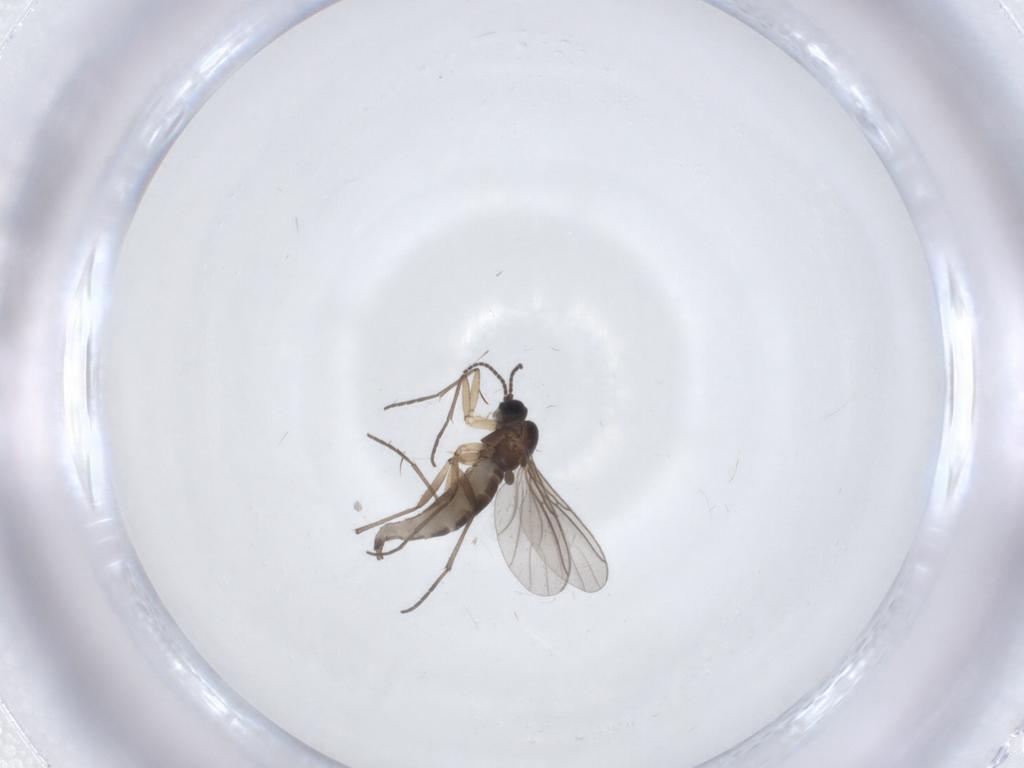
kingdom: Animalia
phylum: Arthropoda
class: Insecta
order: Diptera
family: Sciaridae
